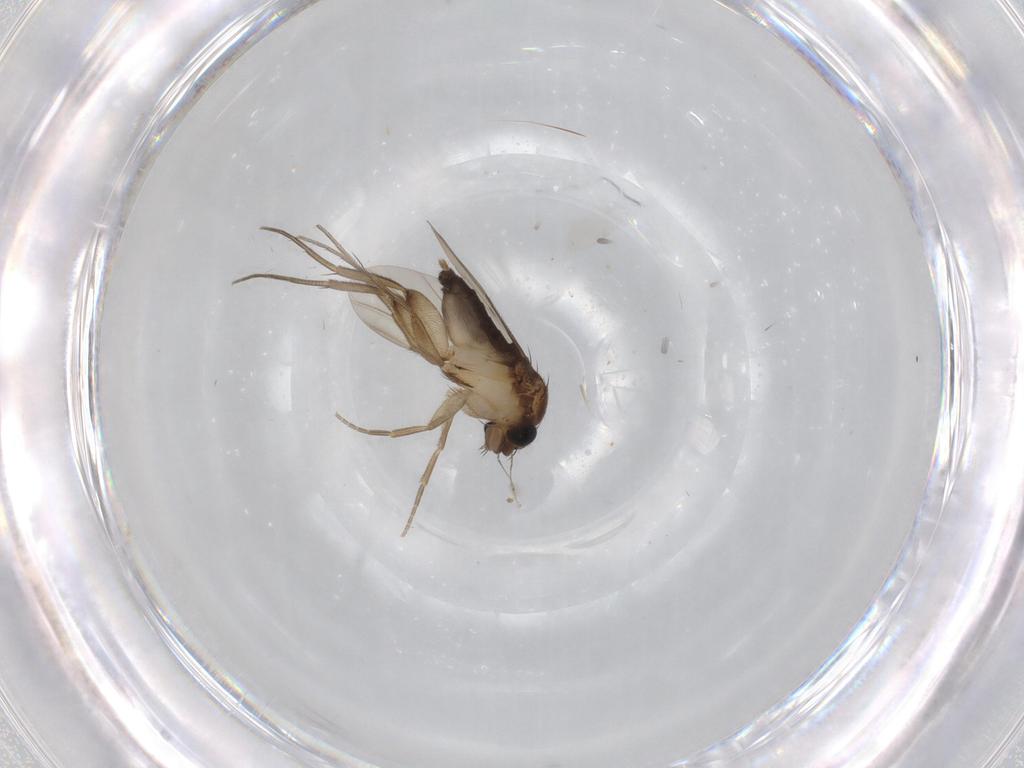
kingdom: Animalia
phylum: Arthropoda
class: Insecta
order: Diptera
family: Phoridae
